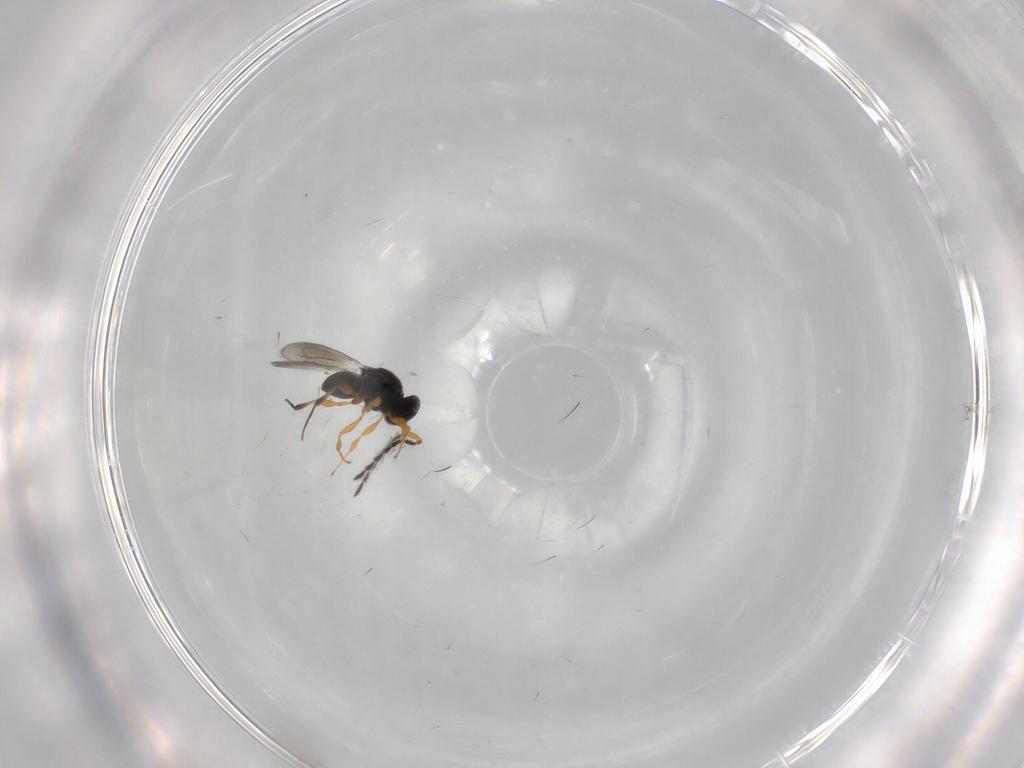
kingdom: Animalia
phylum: Arthropoda
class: Insecta
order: Hymenoptera
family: Platygastridae
